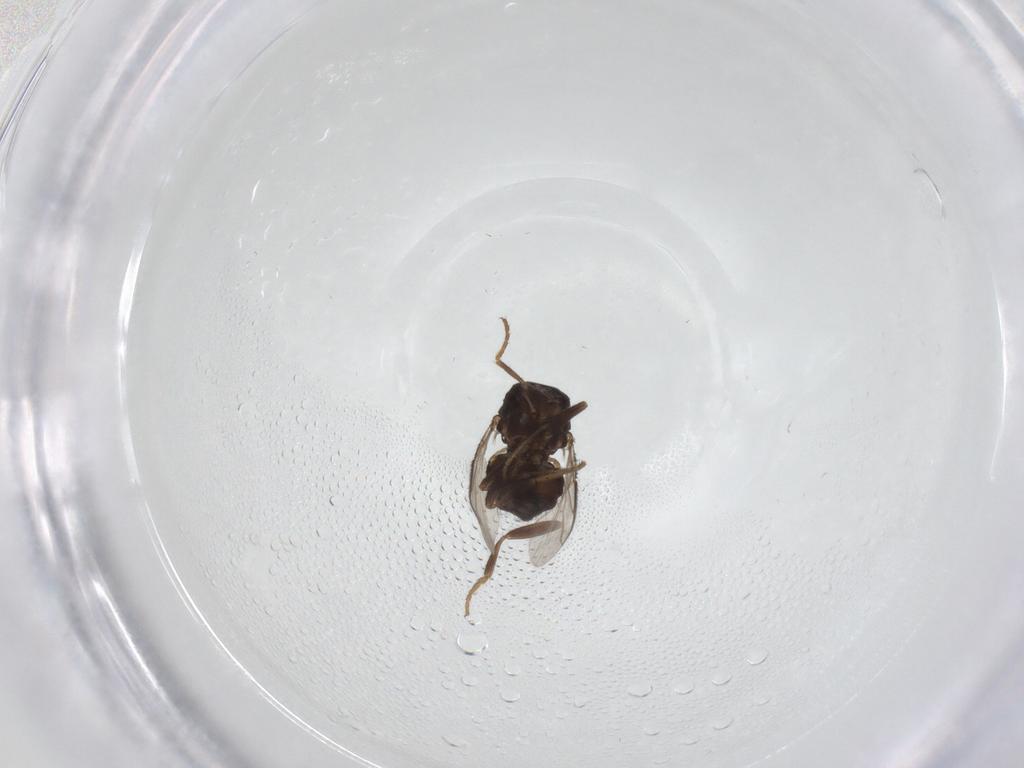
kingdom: Animalia
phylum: Arthropoda
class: Insecta
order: Diptera
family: Sphaeroceridae
